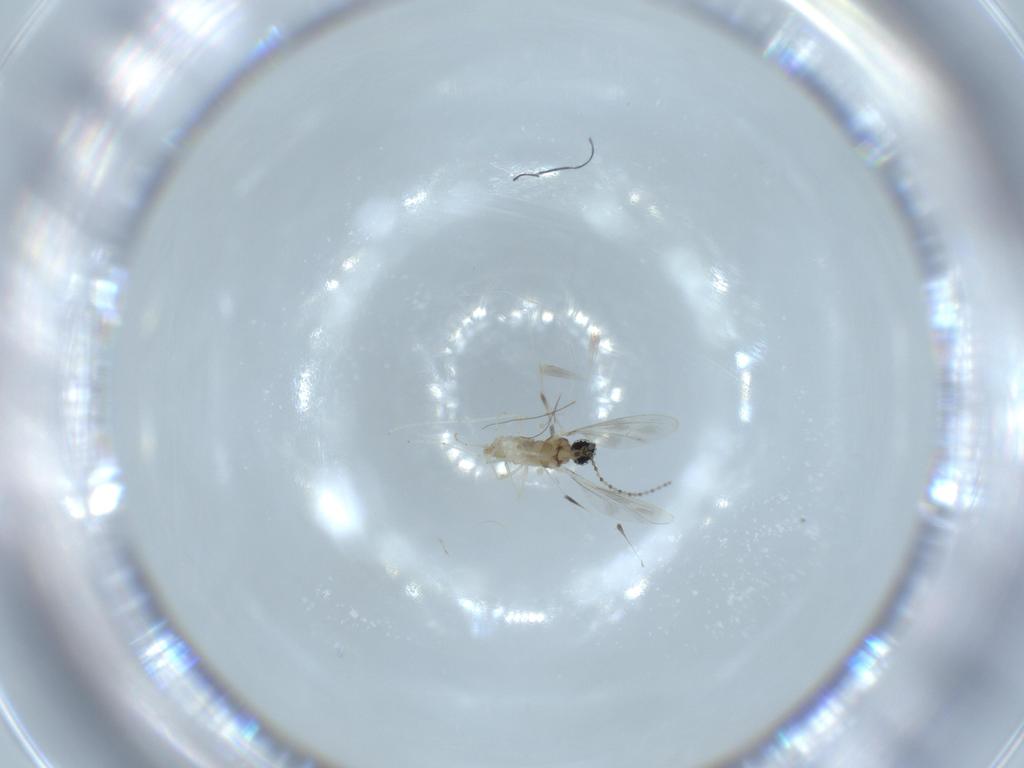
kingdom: Animalia
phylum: Arthropoda
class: Insecta
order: Diptera
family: Cecidomyiidae
